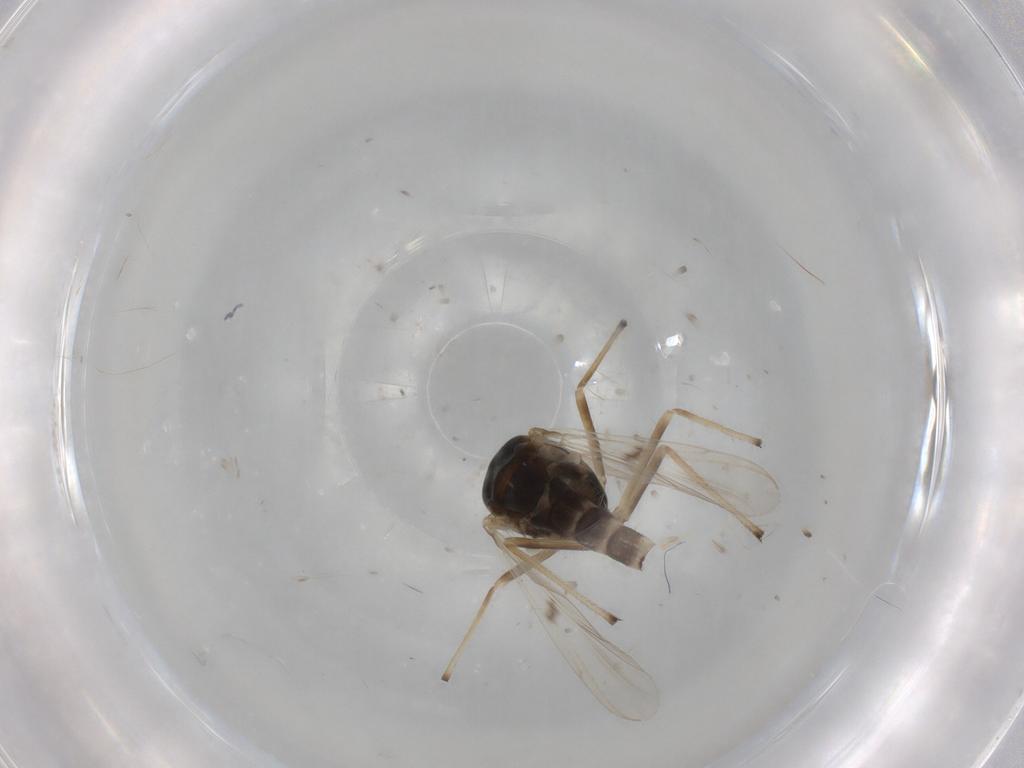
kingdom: Animalia
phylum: Arthropoda
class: Insecta
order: Diptera
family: Chironomidae
